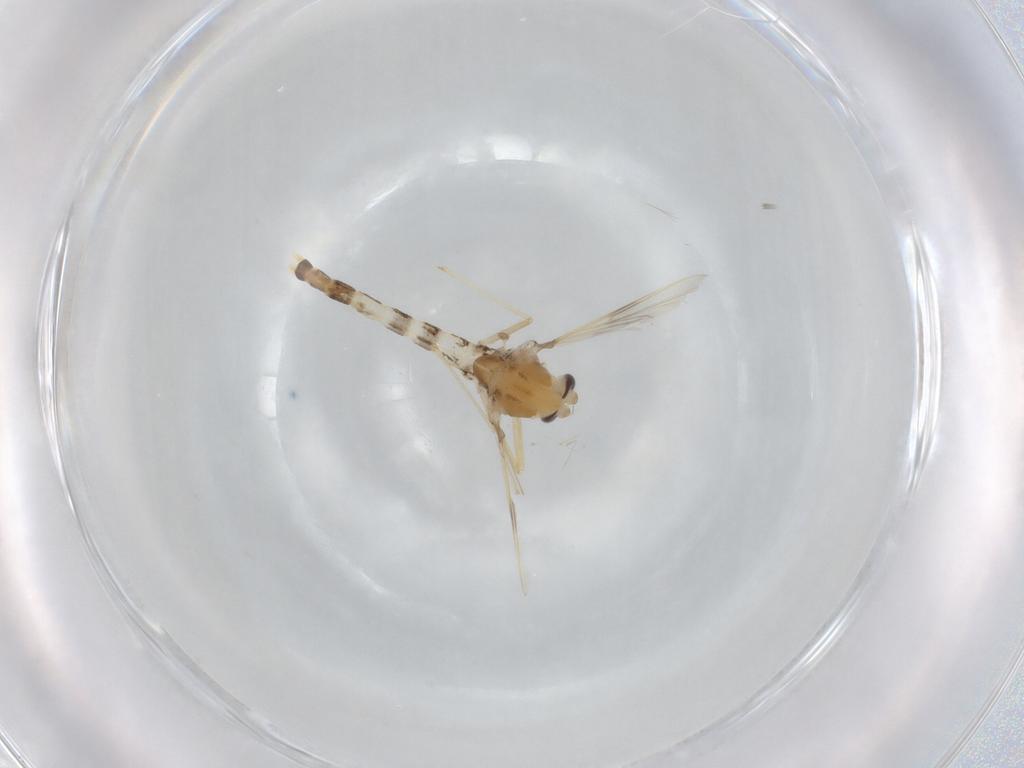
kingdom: Animalia
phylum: Arthropoda
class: Insecta
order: Diptera
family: Chironomidae
